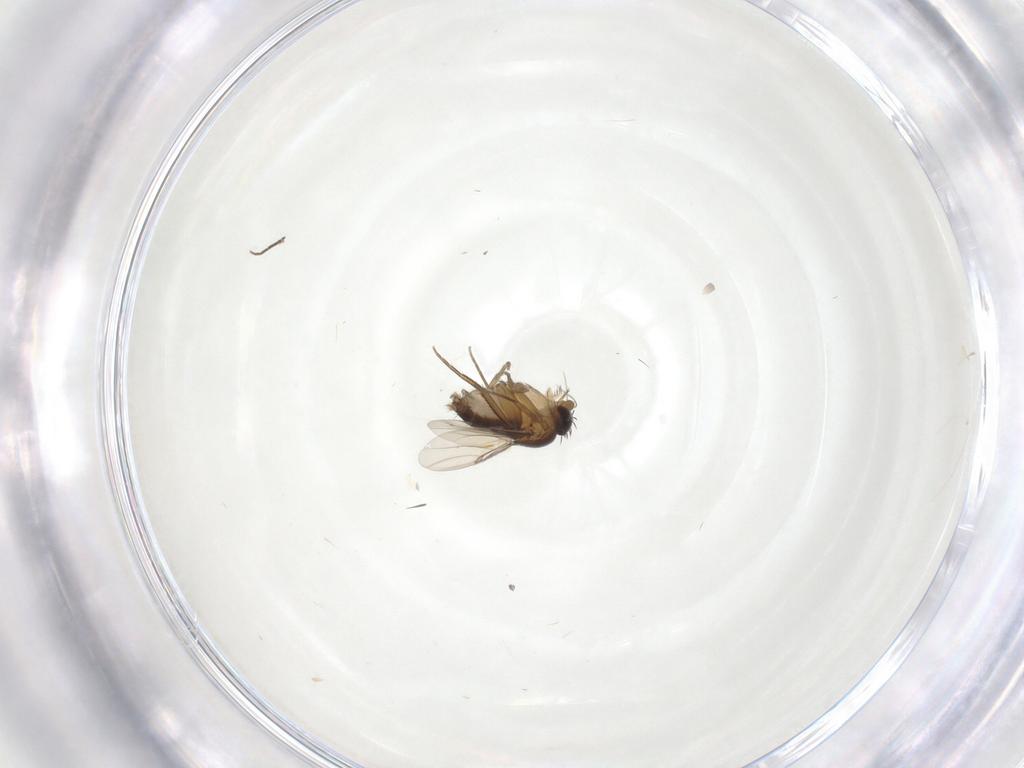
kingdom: Animalia
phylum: Arthropoda
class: Insecta
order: Diptera
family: Phoridae
